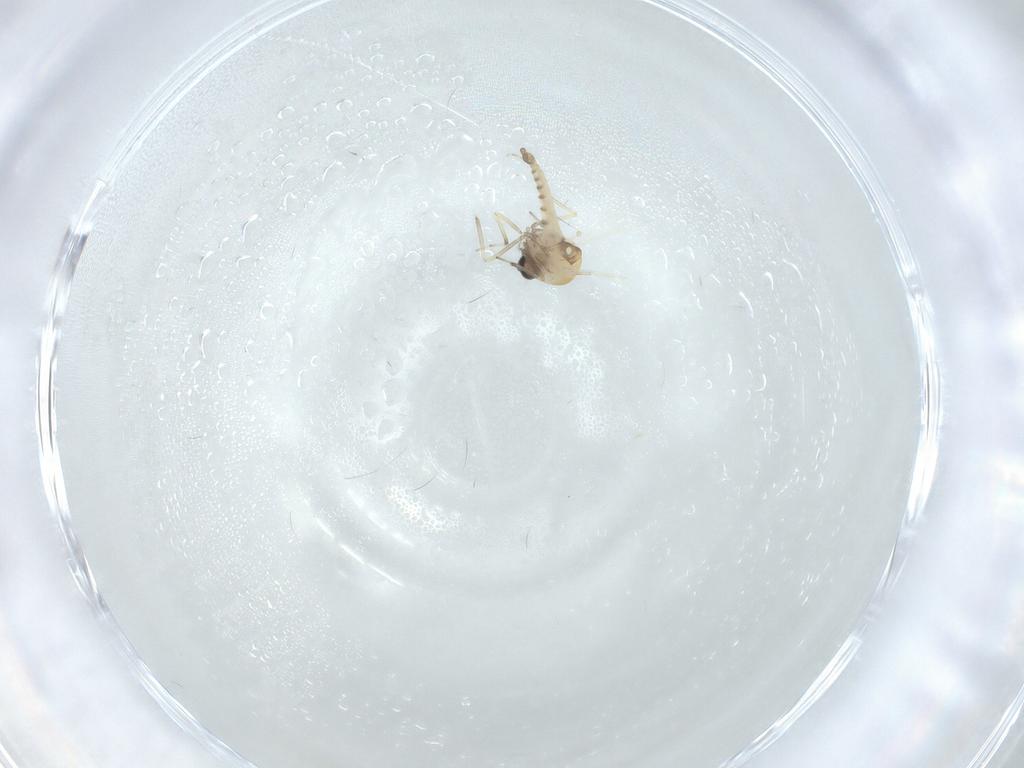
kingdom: Animalia
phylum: Arthropoda
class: Insecta
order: Diptera
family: Ceratopogonidae
